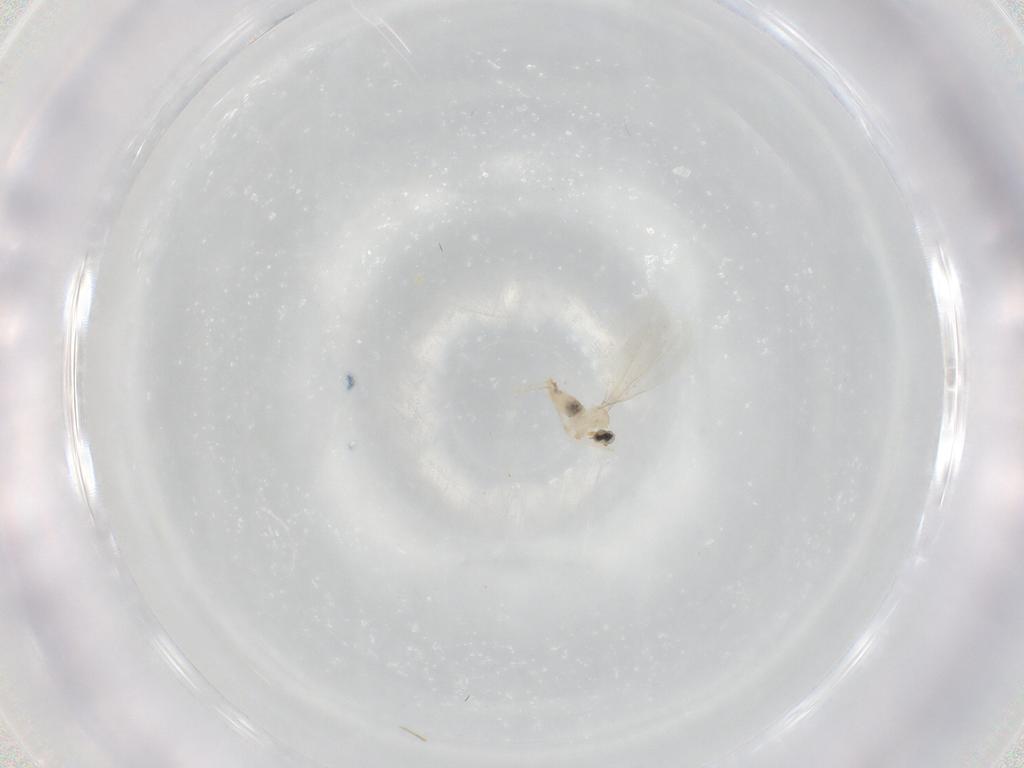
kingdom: Animalia
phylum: Arthropoda
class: Insecta
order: Diptera
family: Cecidomyiidae
